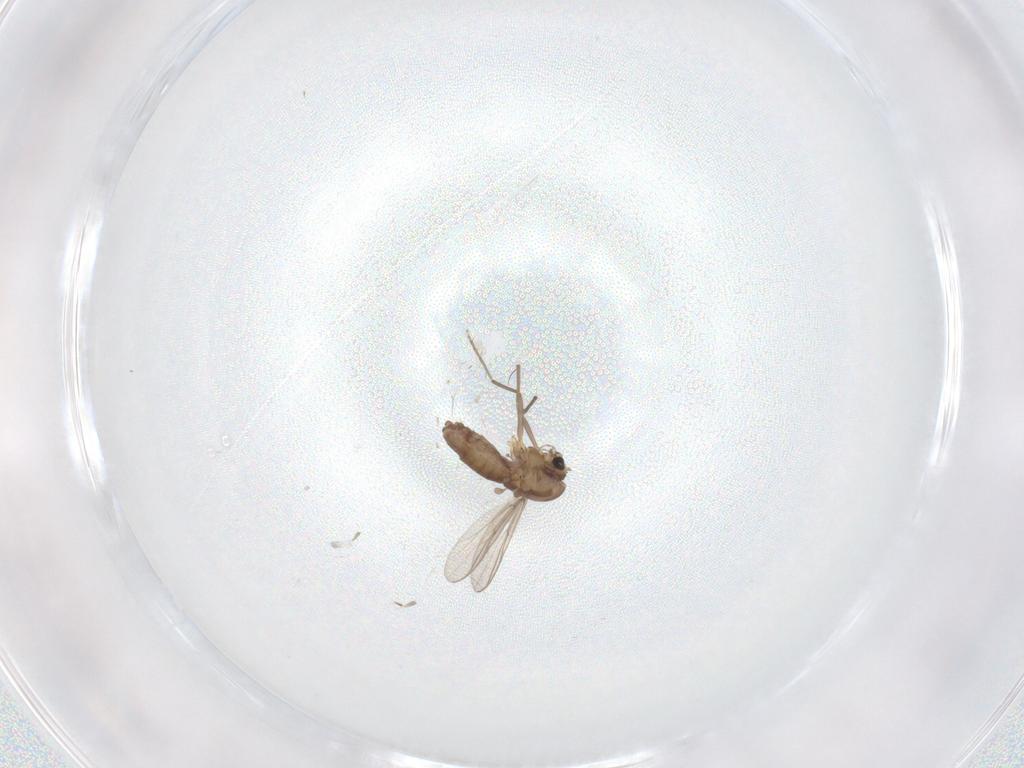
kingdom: Animalia
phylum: Arthropoda
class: Insecta
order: Diptera
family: Chironomidae
